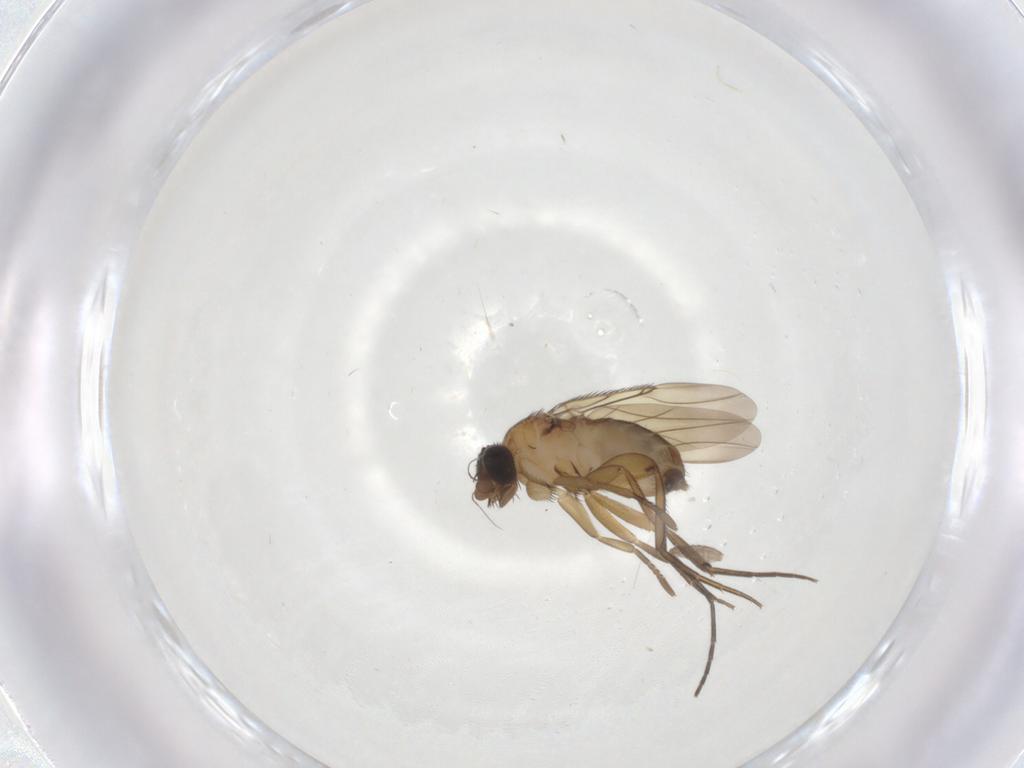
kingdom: Animalia
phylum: Arthropoda
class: Insecta
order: Diptera
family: Phoridae
